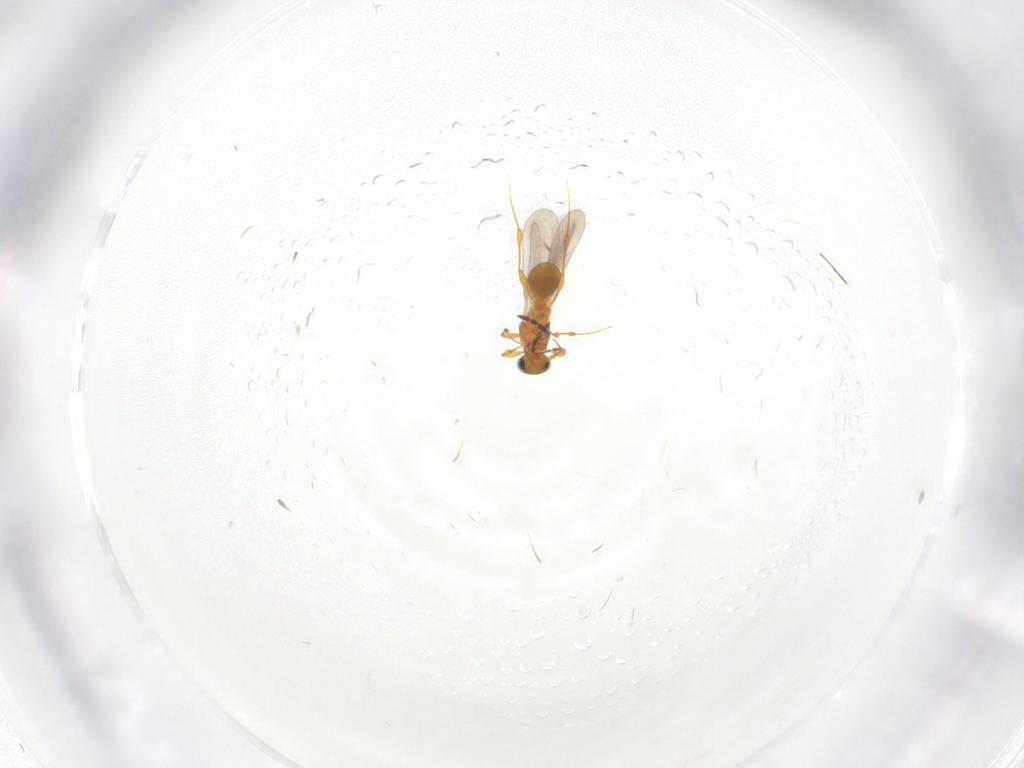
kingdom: Animalia
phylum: Arthropoda
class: Insecta
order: Hymenoptera
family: Platygastridae
